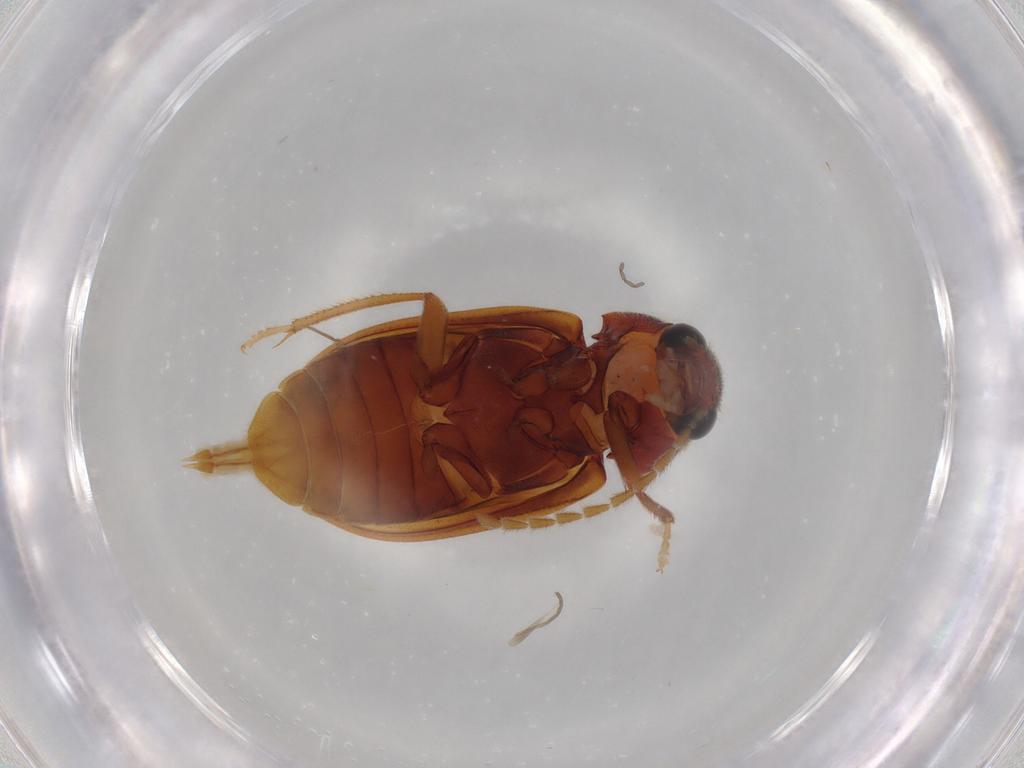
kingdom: Animalia
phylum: Arthropoda
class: Insecta
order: Coleoptera
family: Ptilodactylidae
